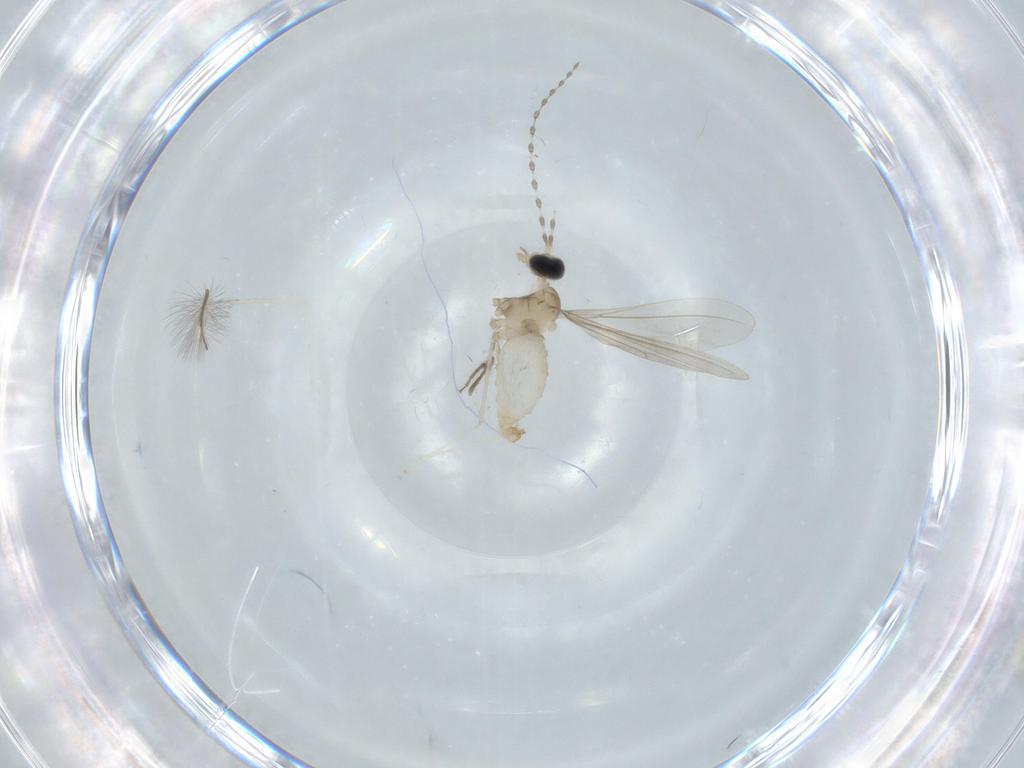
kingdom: Animalia
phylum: Arthropoda
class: Insecta
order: Diptera
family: Cecidomyiidae
